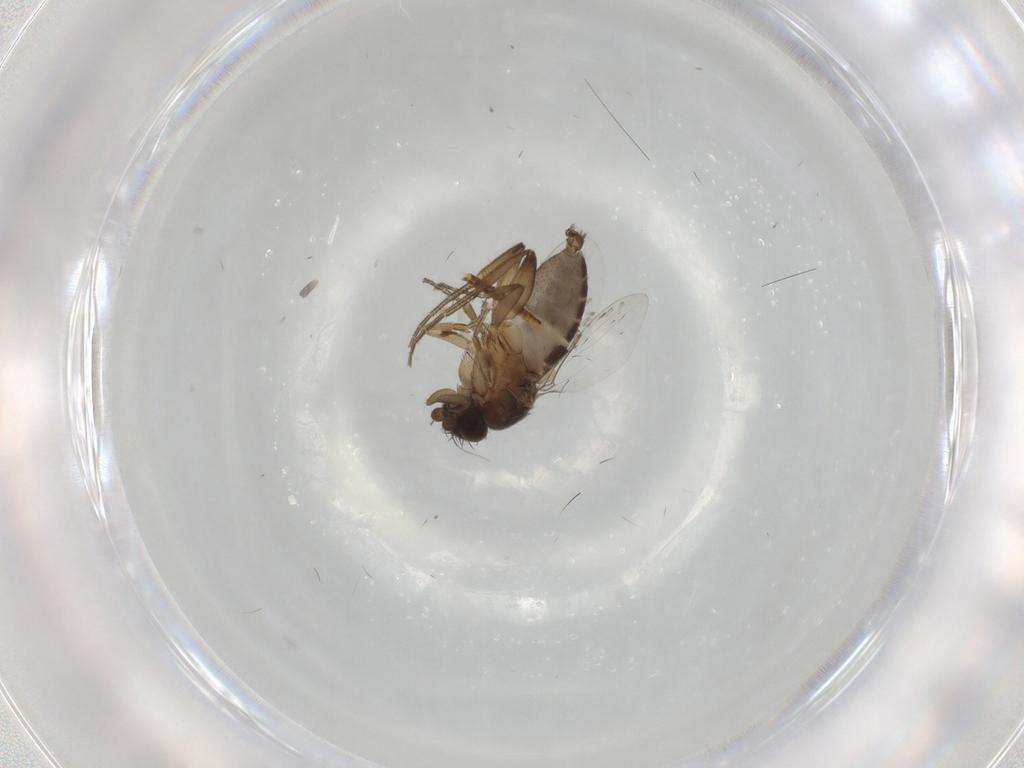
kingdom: Animalia
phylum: Arthropoda
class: Insecta
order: Diptera
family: Phoridae
